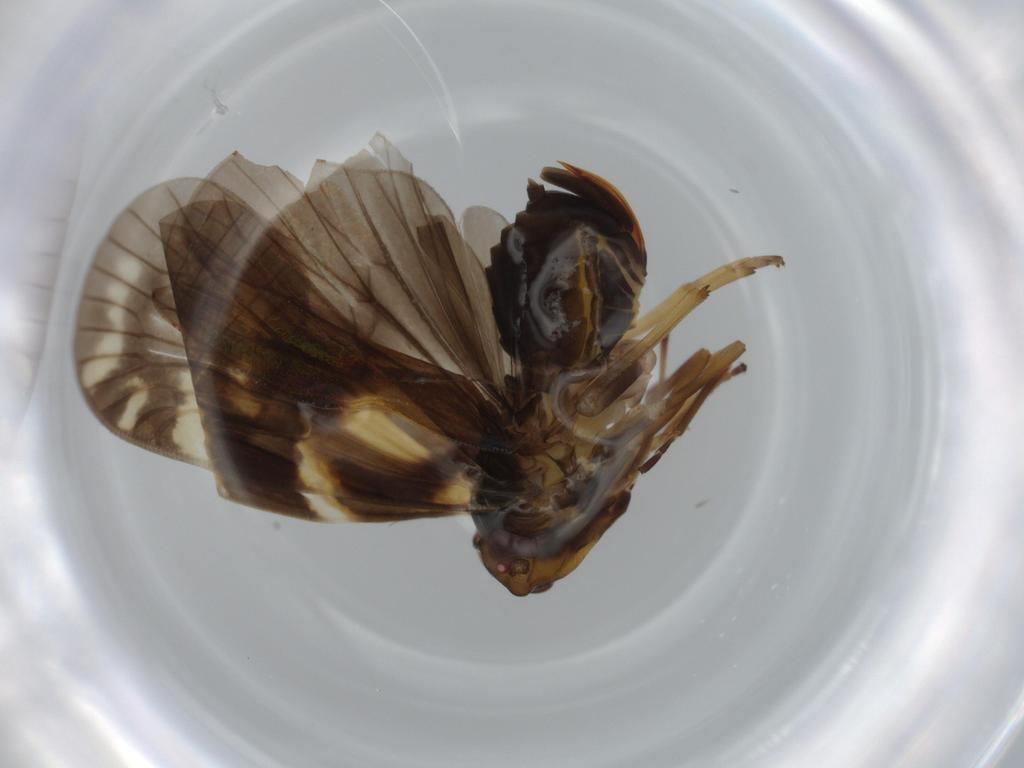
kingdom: Animalia
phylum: Arthropoda
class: Insecta
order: Hemiptera
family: Cixiidae
